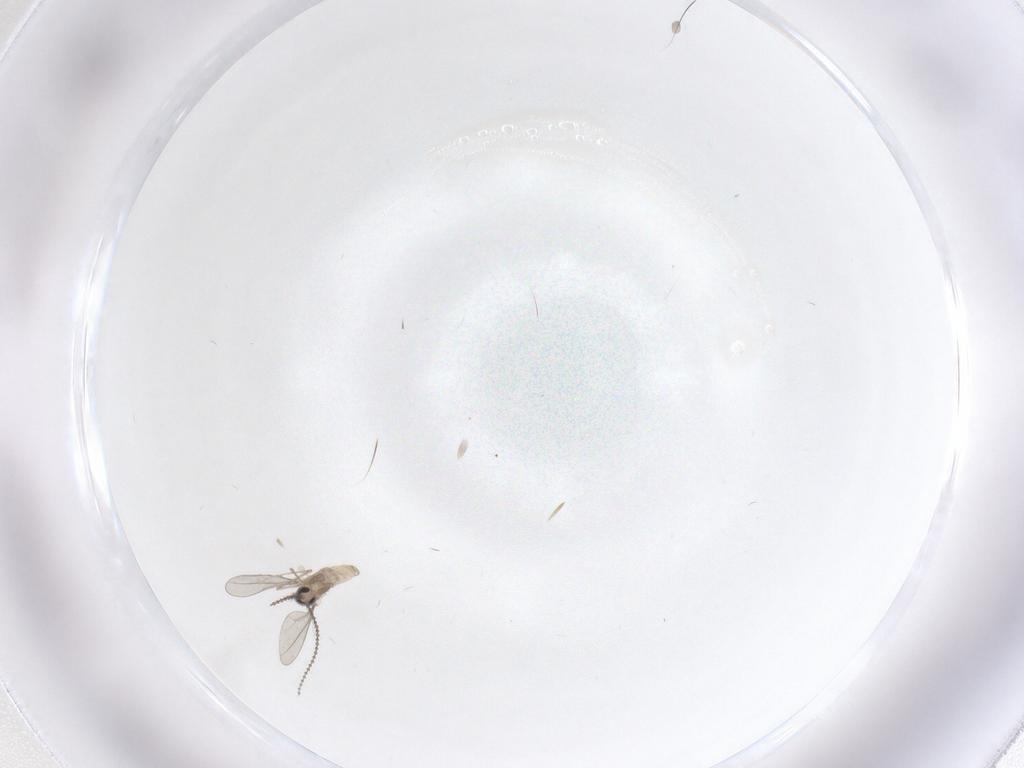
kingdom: Animalia
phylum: Arthropoda
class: Insecta
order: Diptera
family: Cecidomyiidae
